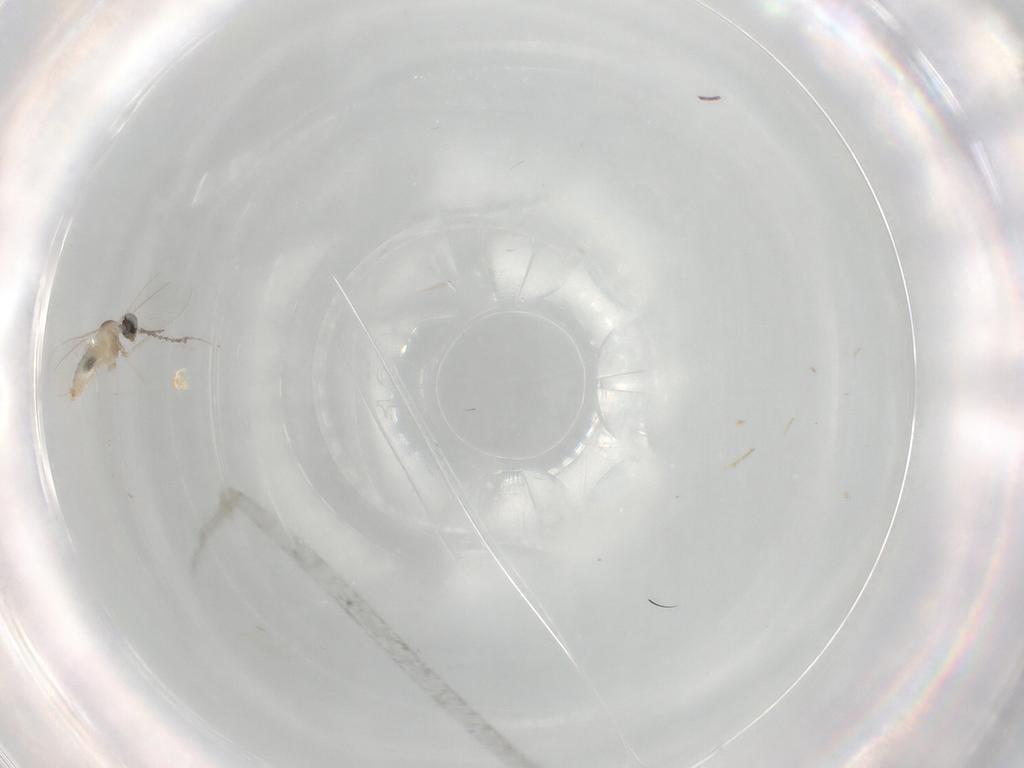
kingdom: Animalia
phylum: Arthropoda
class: Insecta
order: Diptera
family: Cecidomyiidae
